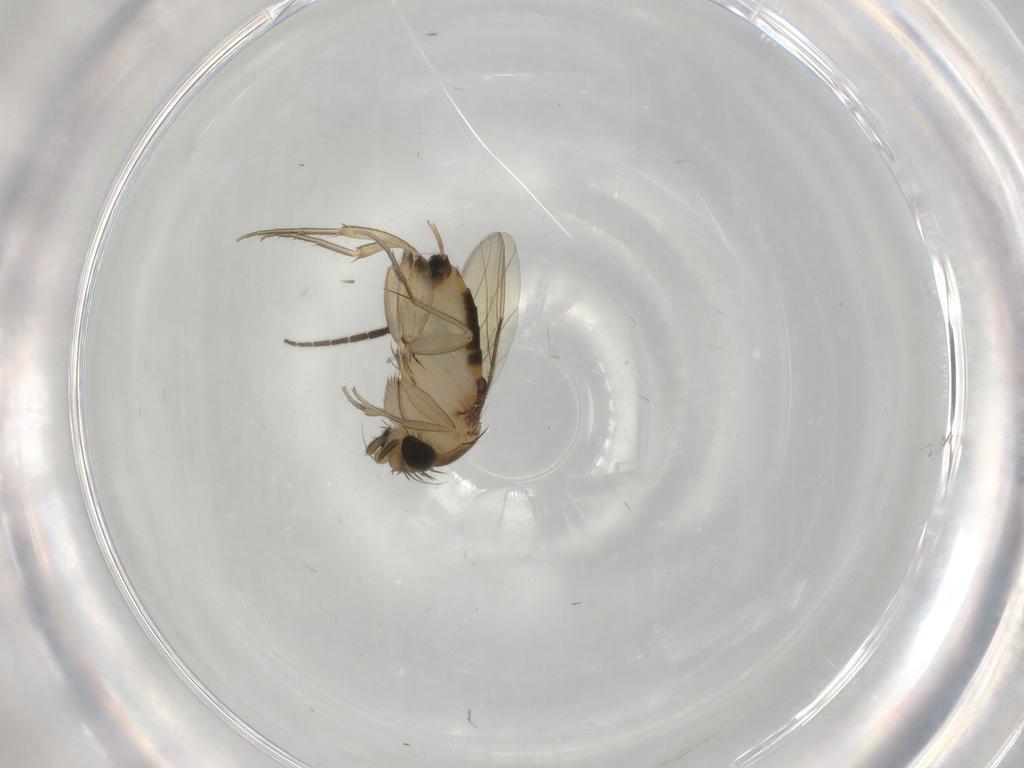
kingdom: Animalia
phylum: Arthropoda
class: Insecta
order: Diptera
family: Phoridae
